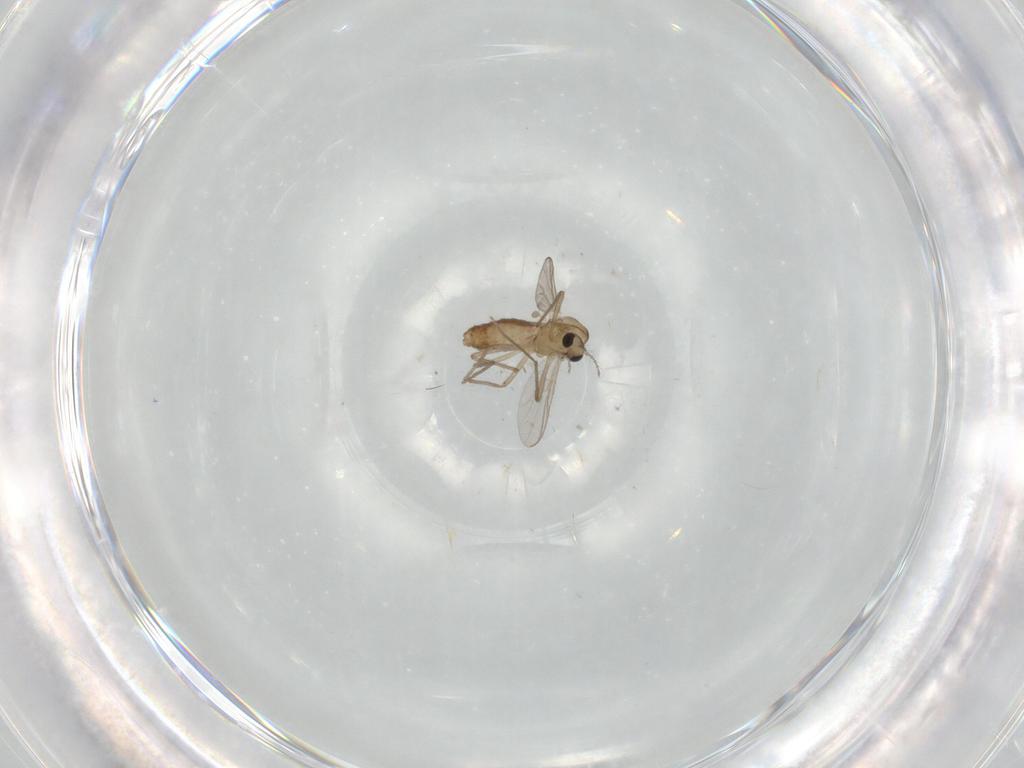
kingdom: Animalia
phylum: Arthropoda
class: Insecta
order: Diptera
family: Chironomidae
